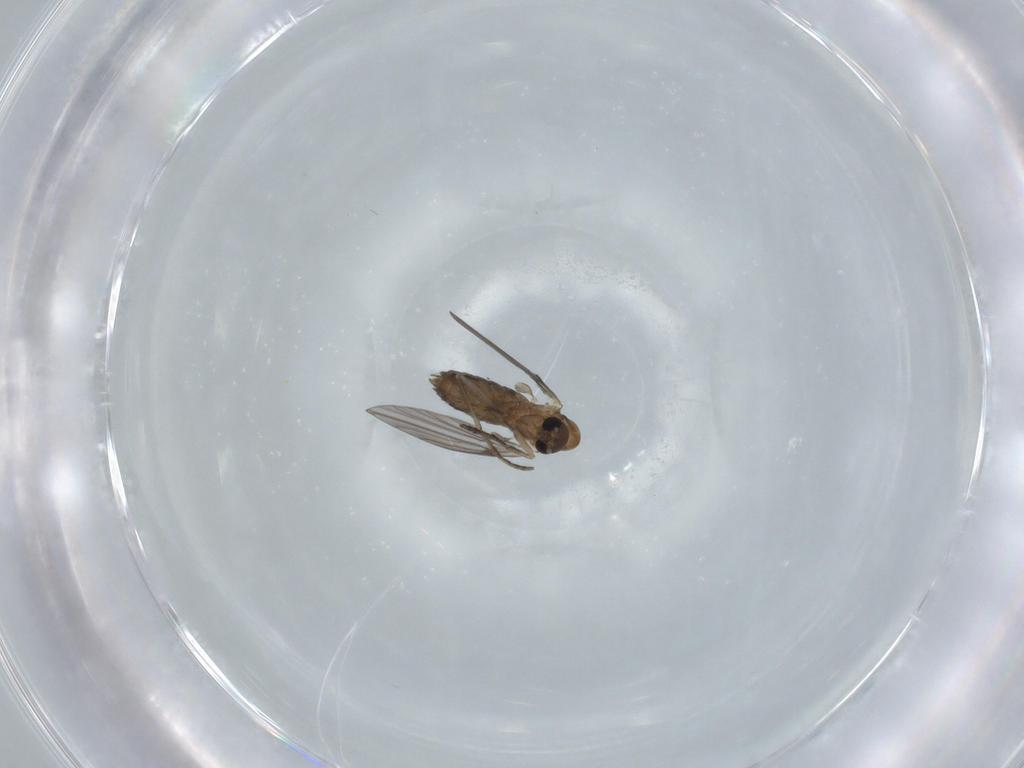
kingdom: Animalia
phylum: Arthropoda
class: Insecta
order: Diptera
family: Psychodidae
